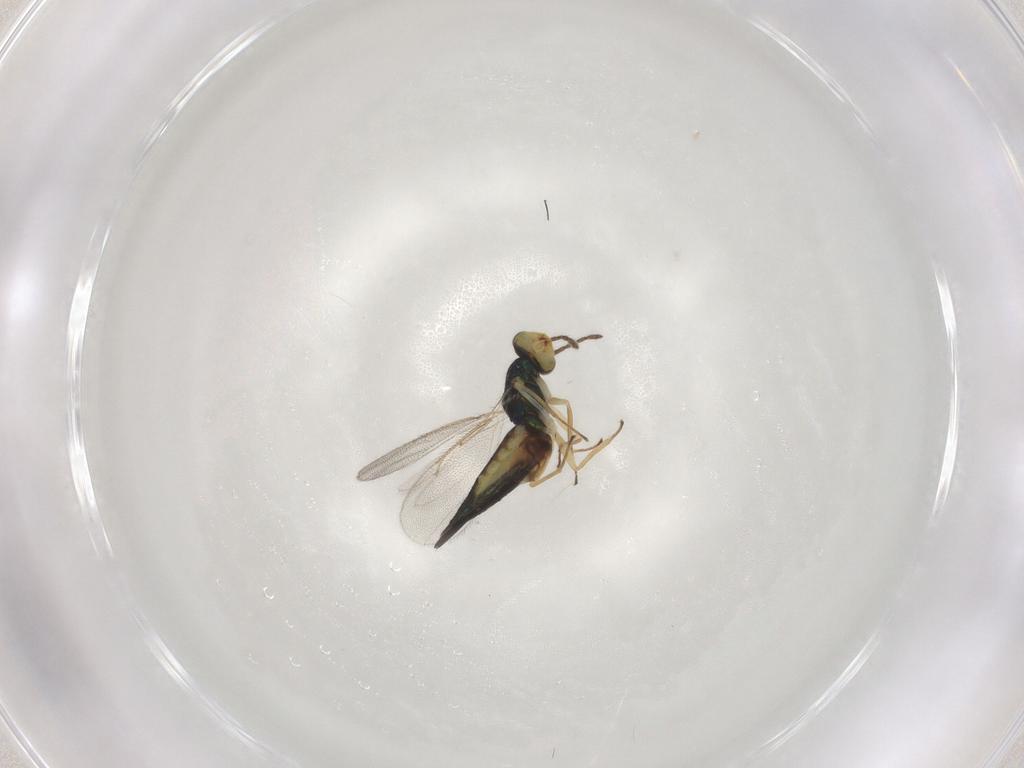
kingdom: Animalia
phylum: Arthropoda
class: Insecta
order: Hymenoptera
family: Eulophidae
